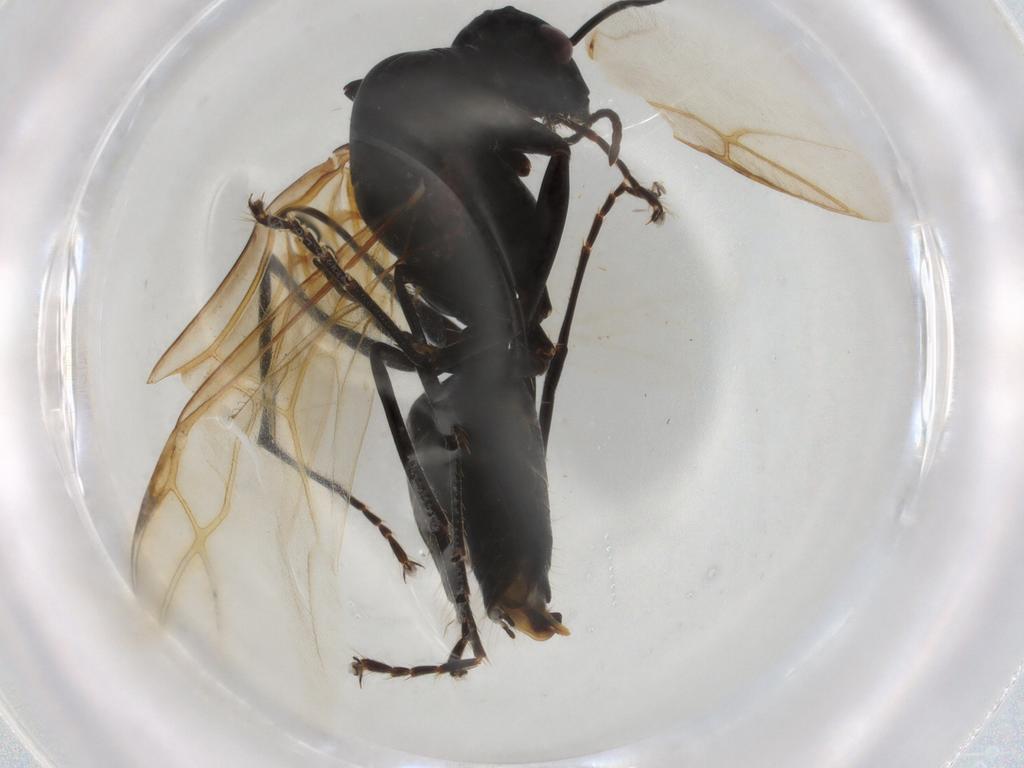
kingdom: Animalia
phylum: Arthropoda
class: Insecta
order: Hymenoptera
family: Formicidae
